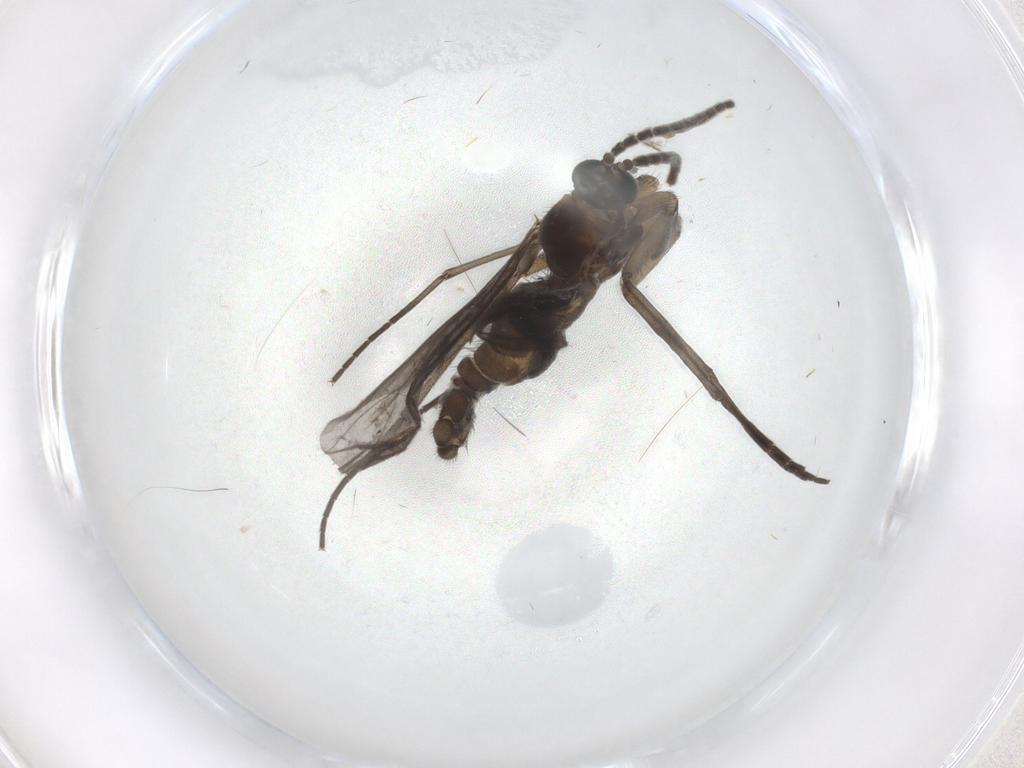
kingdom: Animalia
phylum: Arthropoda
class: Insecta
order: Diptera
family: Sciaridae
